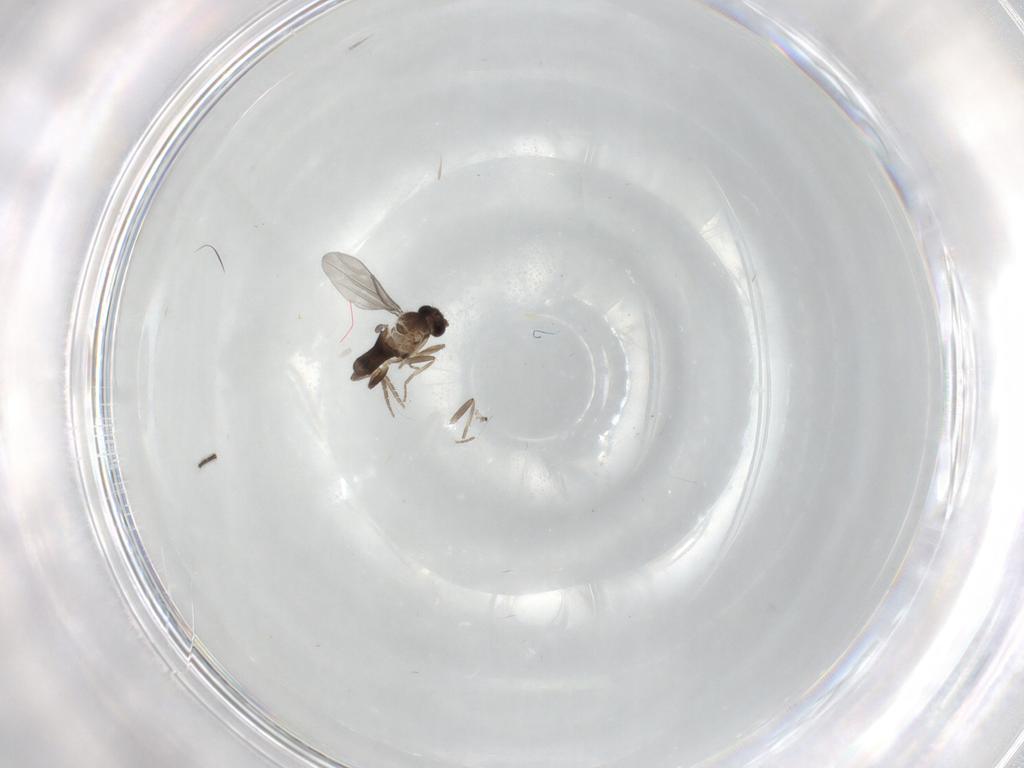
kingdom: Animalia
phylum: Arthropoda
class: Insecta
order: Diptera
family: Sciaridae
